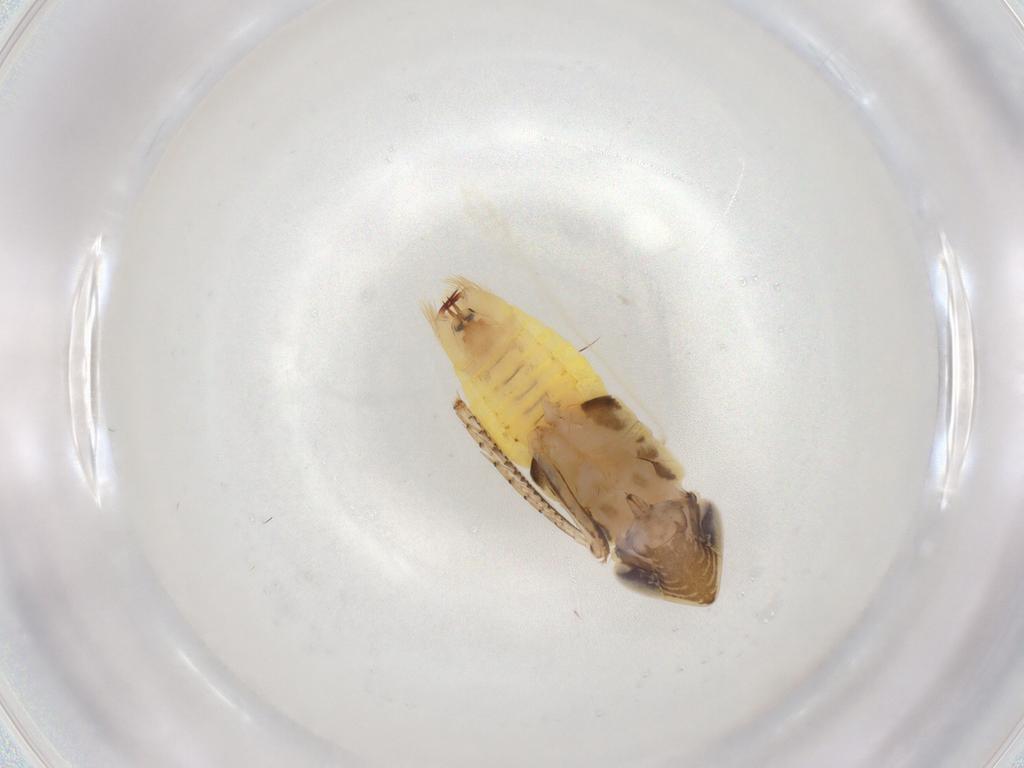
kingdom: Animalia
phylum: Arthropoda
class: Insecta
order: Hemiptera
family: Cicadellidae
